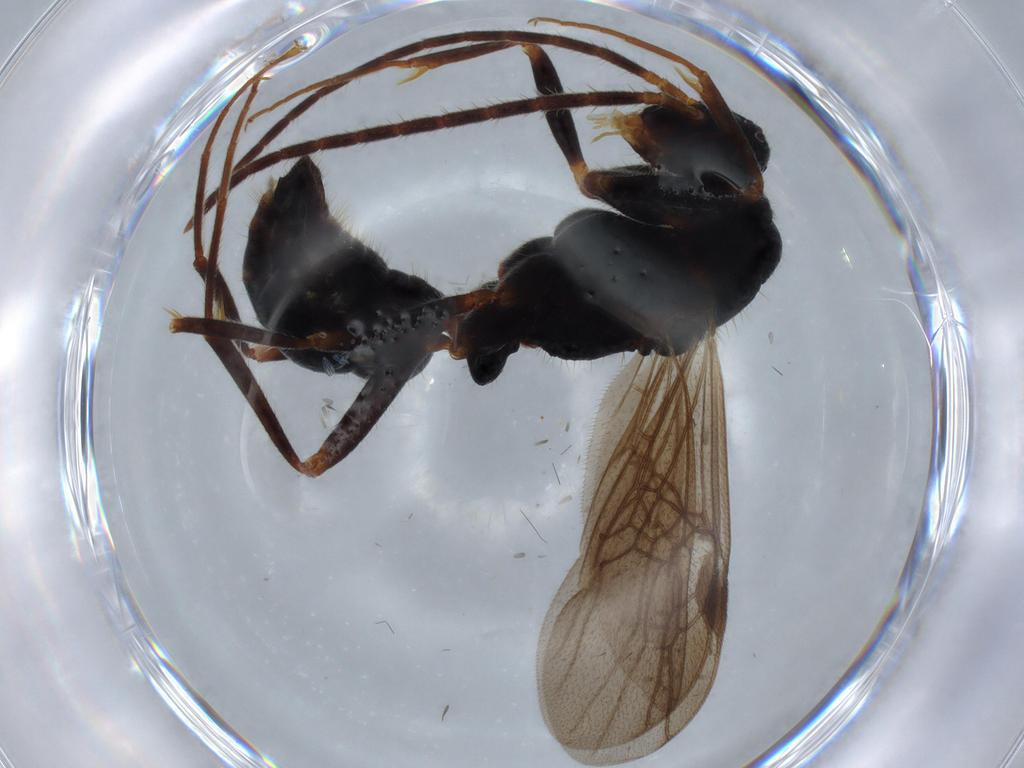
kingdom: Animalia
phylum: Arthropoda
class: Insecta
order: Hymenoptera
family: Formicidae
